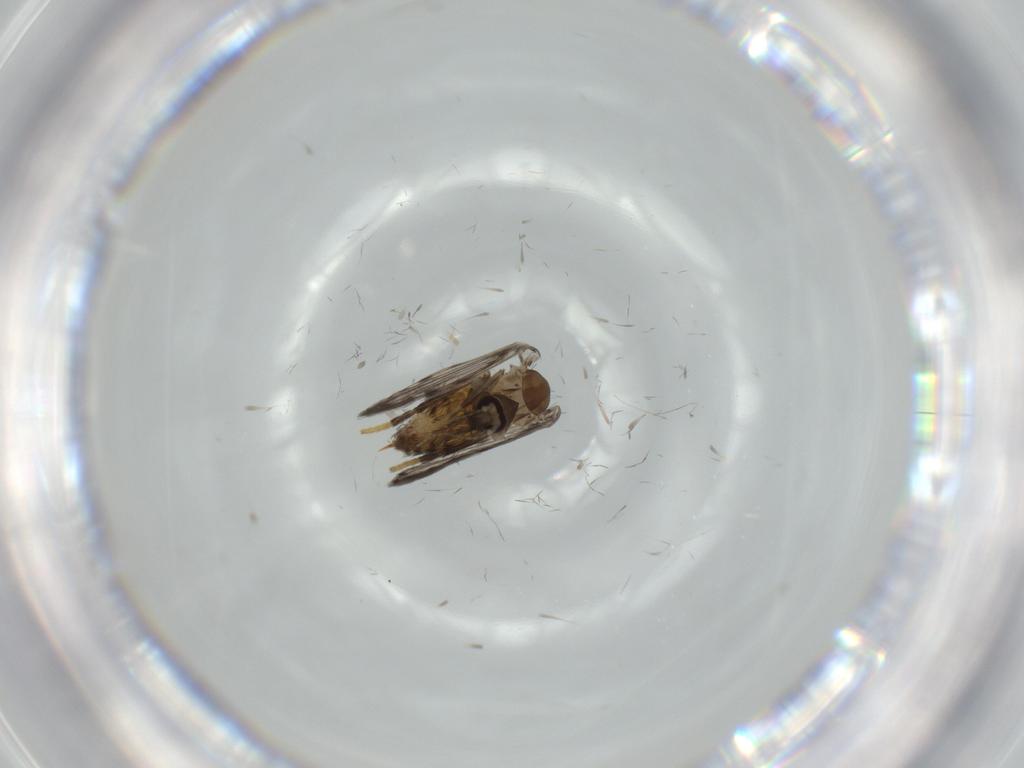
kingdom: Animalia
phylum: Arthropoda
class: Insecta
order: Diptera
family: Sciaridae
